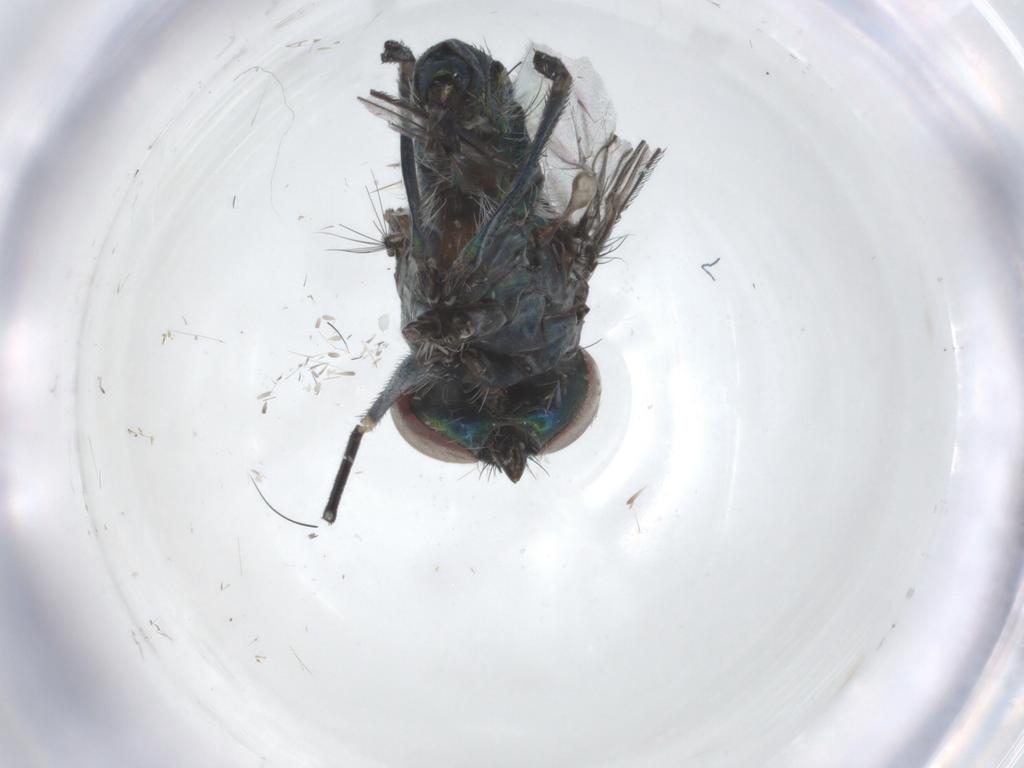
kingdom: Animalia
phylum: Arthropoda
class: Insecta
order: Diptera
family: Dolichopodidae
